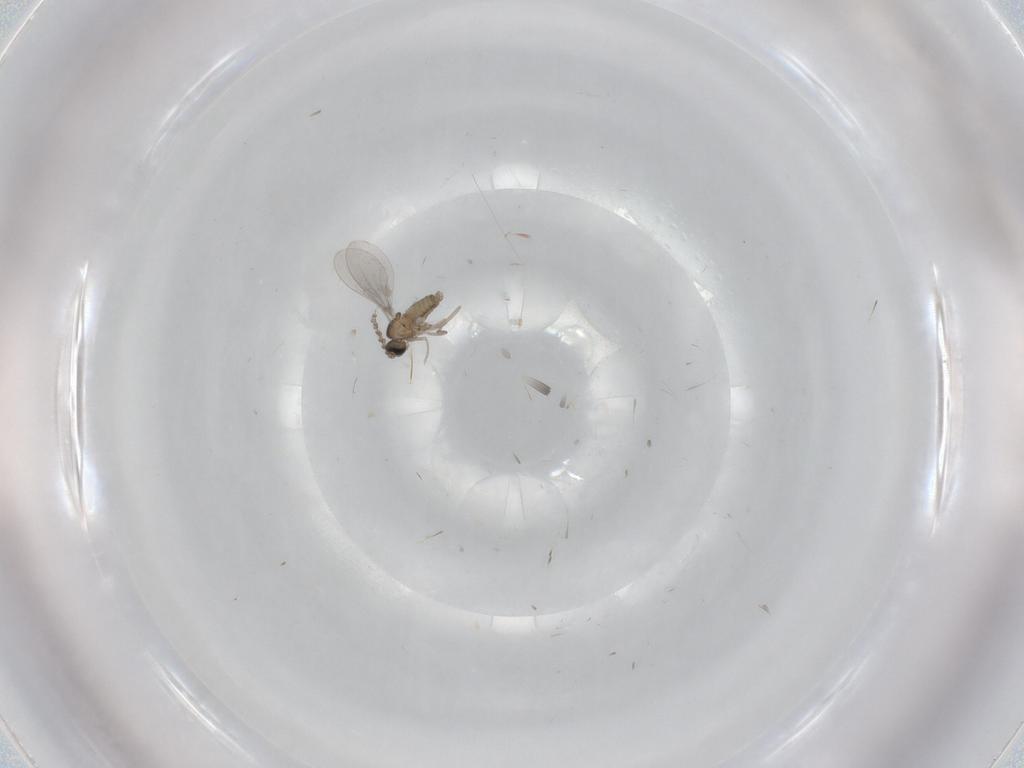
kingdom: Animalia
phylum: Arthropoda
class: Insecta
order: Diptera
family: Cecidomyiidae
